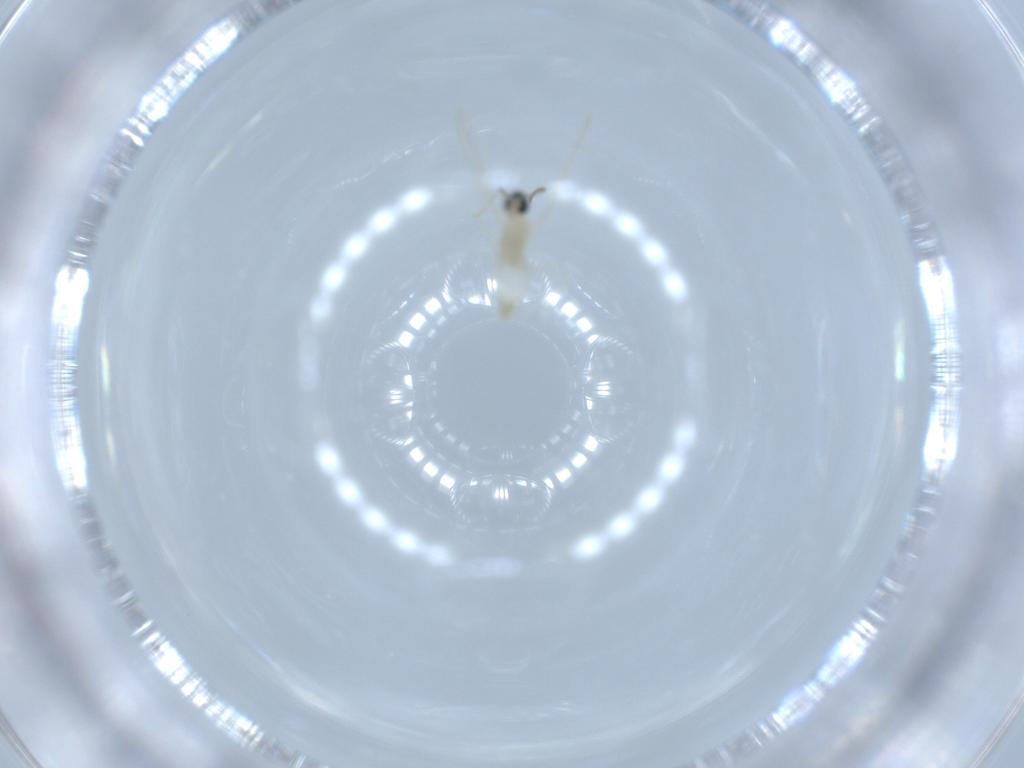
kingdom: Animalia
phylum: Arthropoda
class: Insecta
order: Diptera
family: Cecidomyiidae
